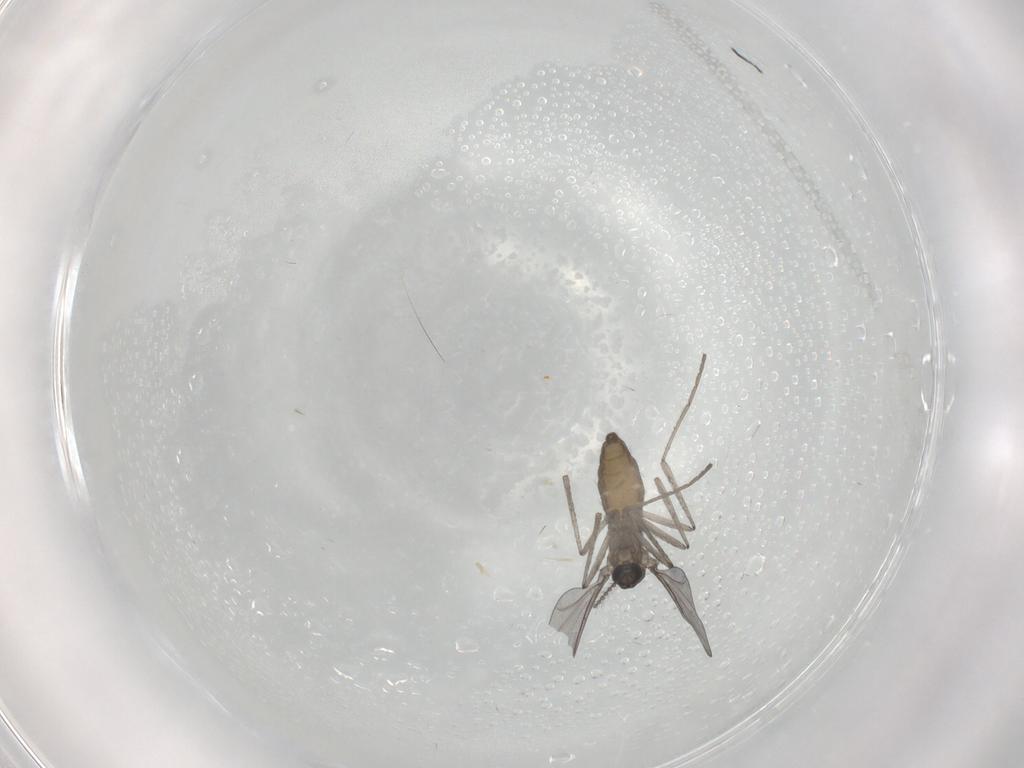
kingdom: Animalia
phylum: Arthropoda
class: Insecta
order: Diptera
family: Cecidomyiidae
